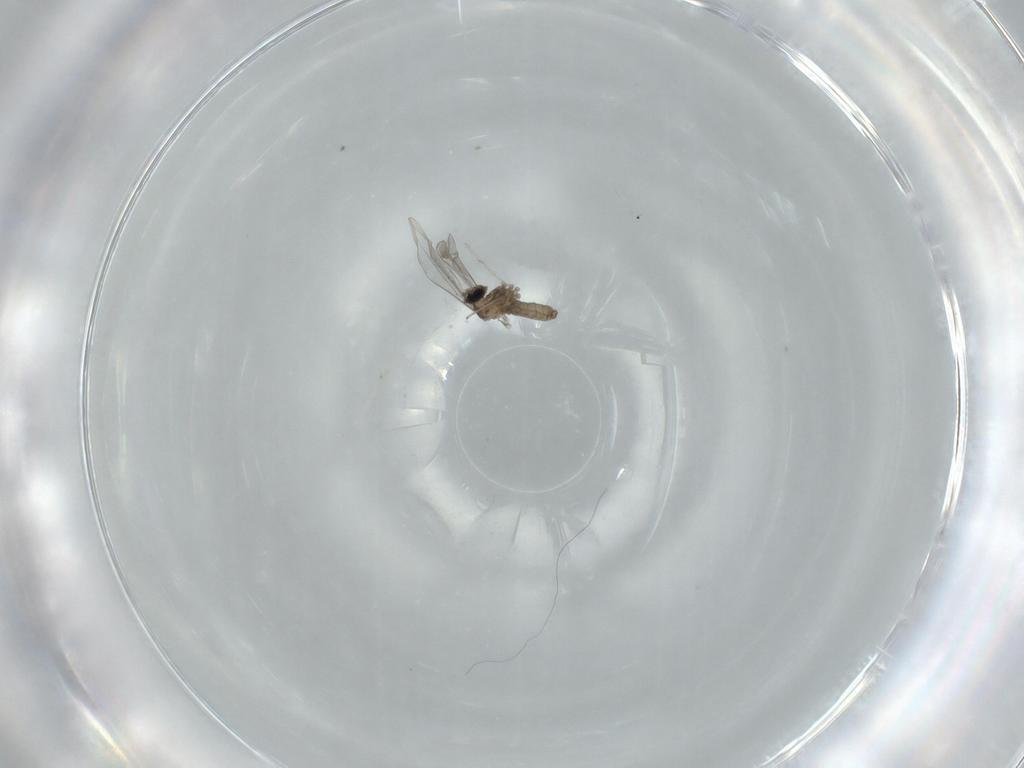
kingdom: Animalia
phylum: Arthropoda
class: Insecta
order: Diptera
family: Cecidomyiidae
